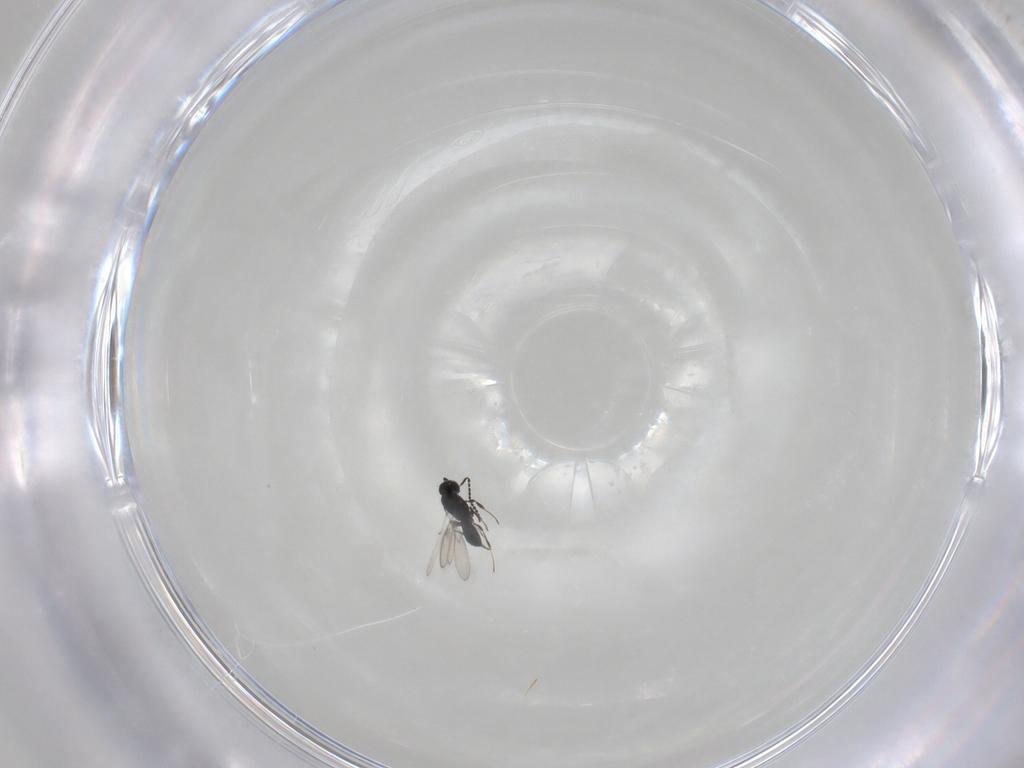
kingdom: Animalia
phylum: Arthropoda
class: Insecta
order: Hymenoptera
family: Scelionidae
